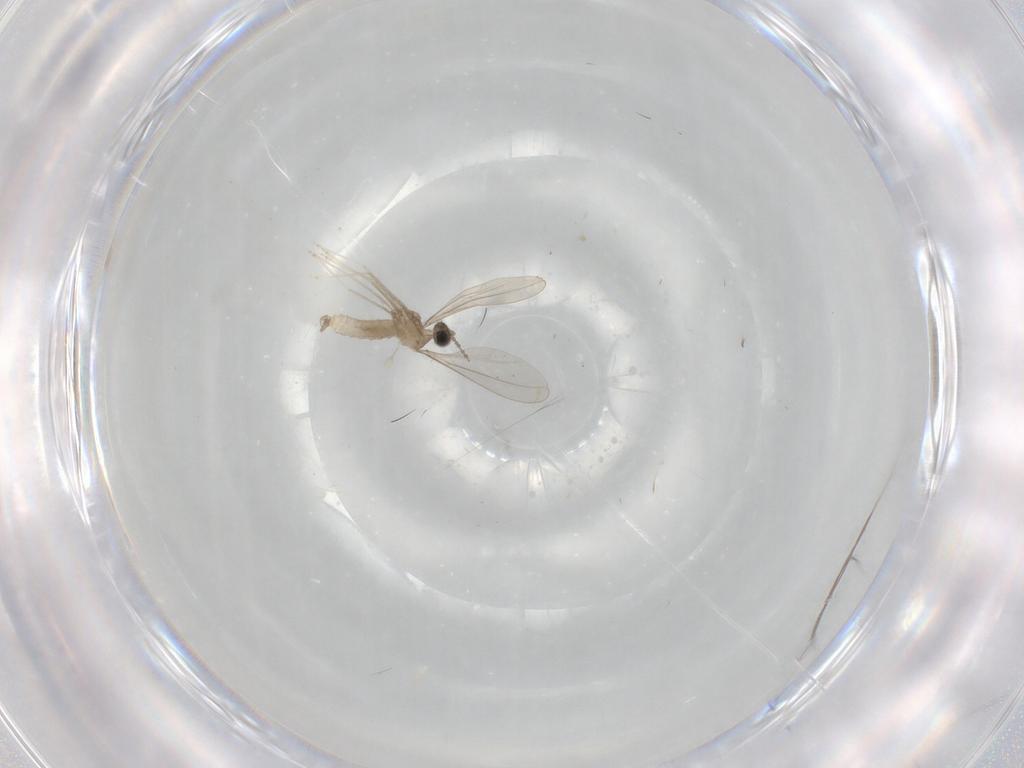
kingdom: Animalia
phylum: Arthropoda
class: Insecta
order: Diptera
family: Cecidomyiidae
